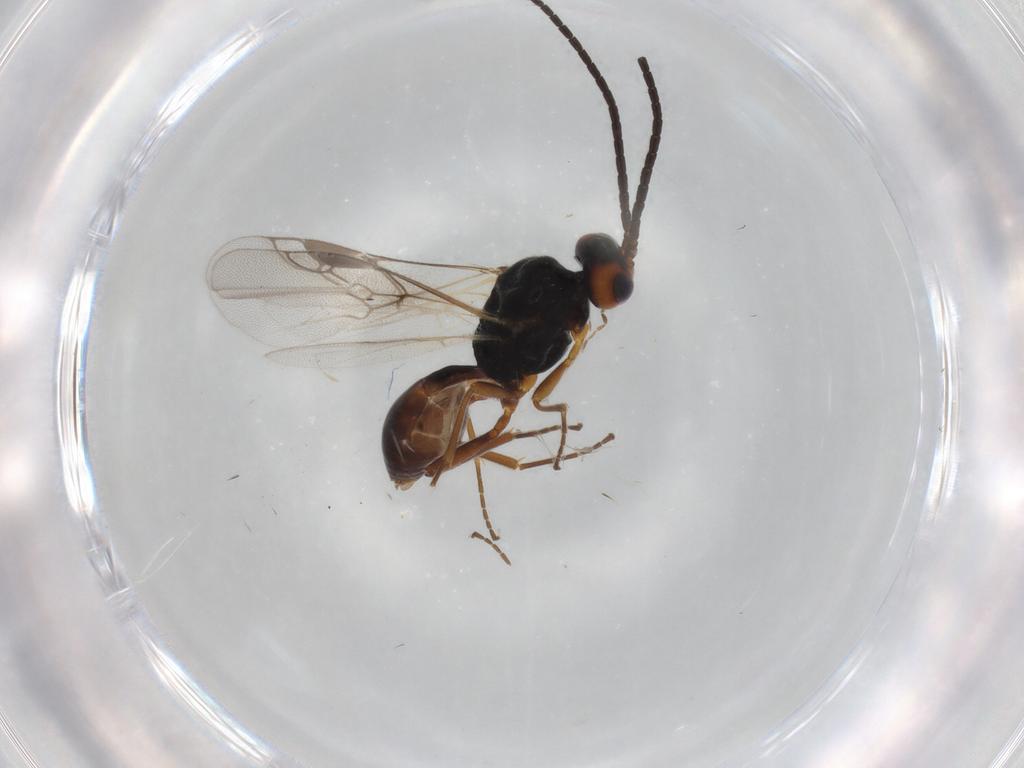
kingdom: Animalia
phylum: Arthropoda
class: Insecta
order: Hymenoptera
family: Braconidae
